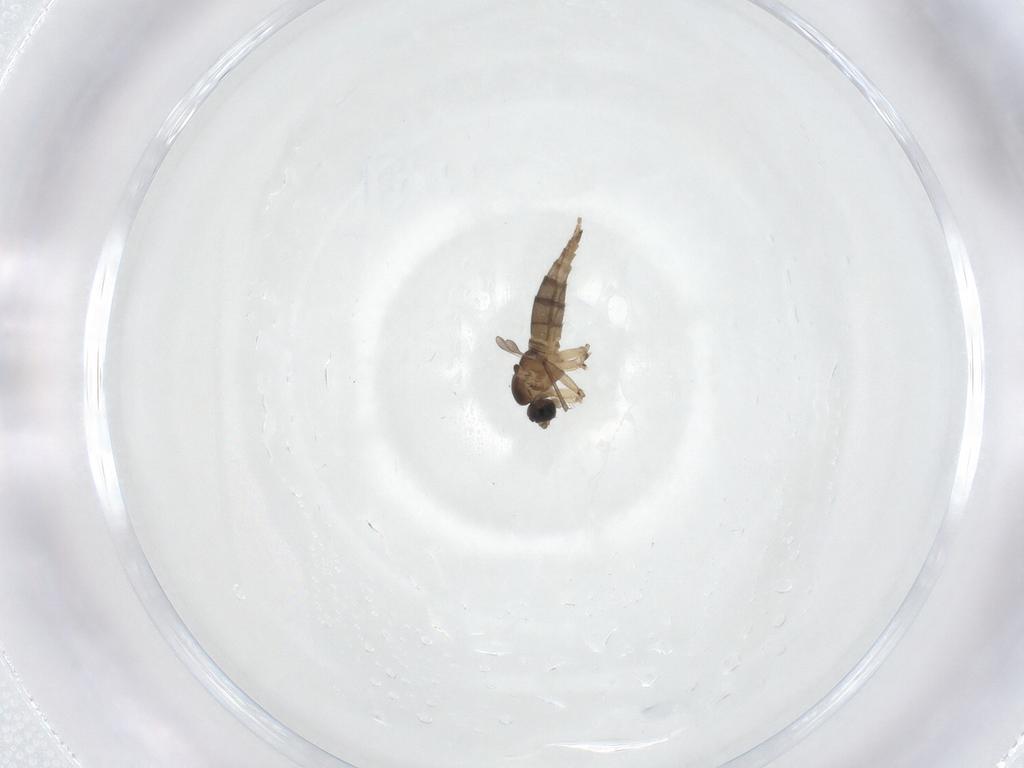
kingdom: Animalia
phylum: Arthropoda
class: Insecta
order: Diptera
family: Sciaridae
